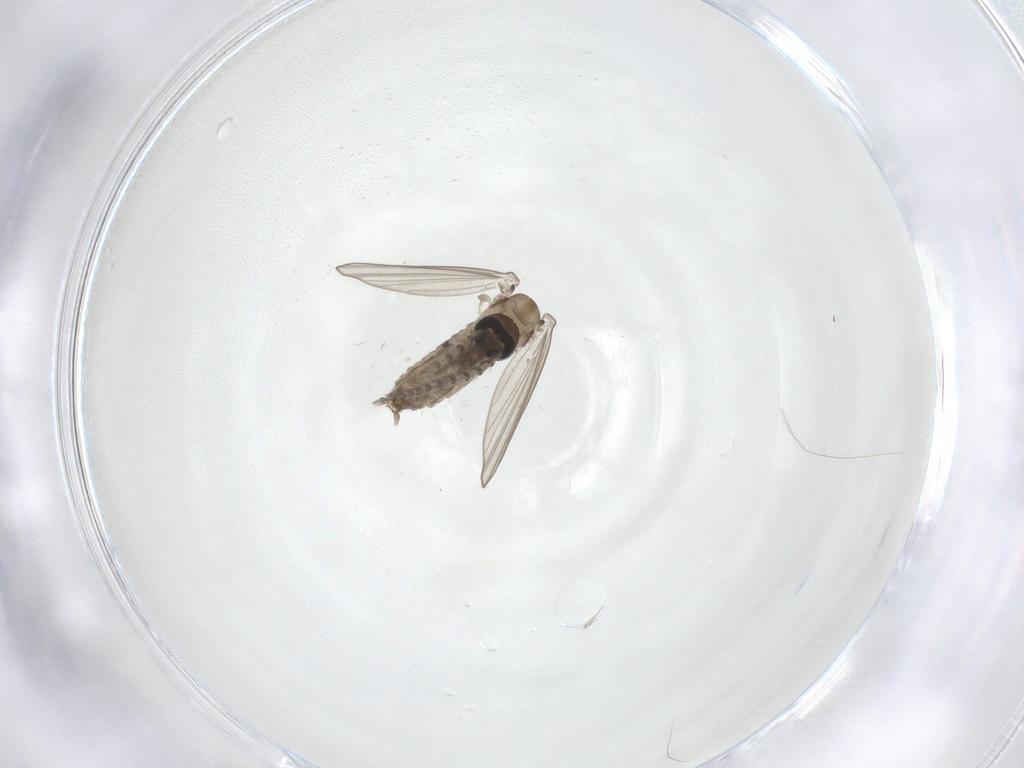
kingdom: Animalia
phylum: Arthropoda
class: Insecta
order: Diptera
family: Psychodidae
